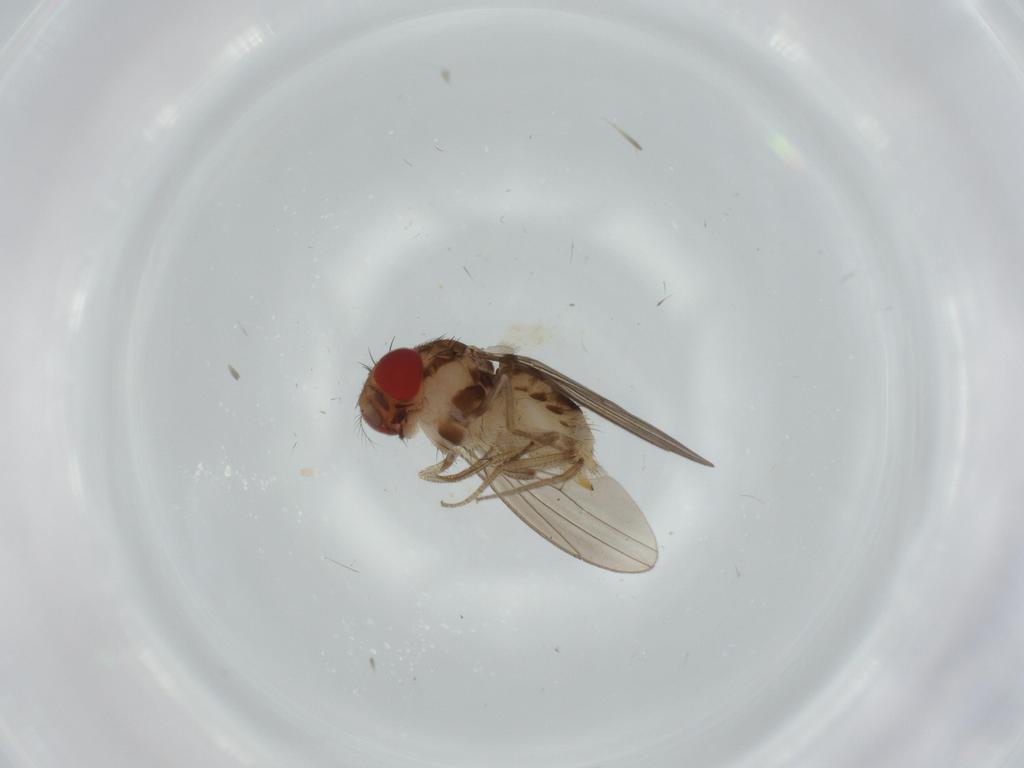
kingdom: Animalia
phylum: Arthropoda
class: Insecta
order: Diptera
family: Drosophilidae
